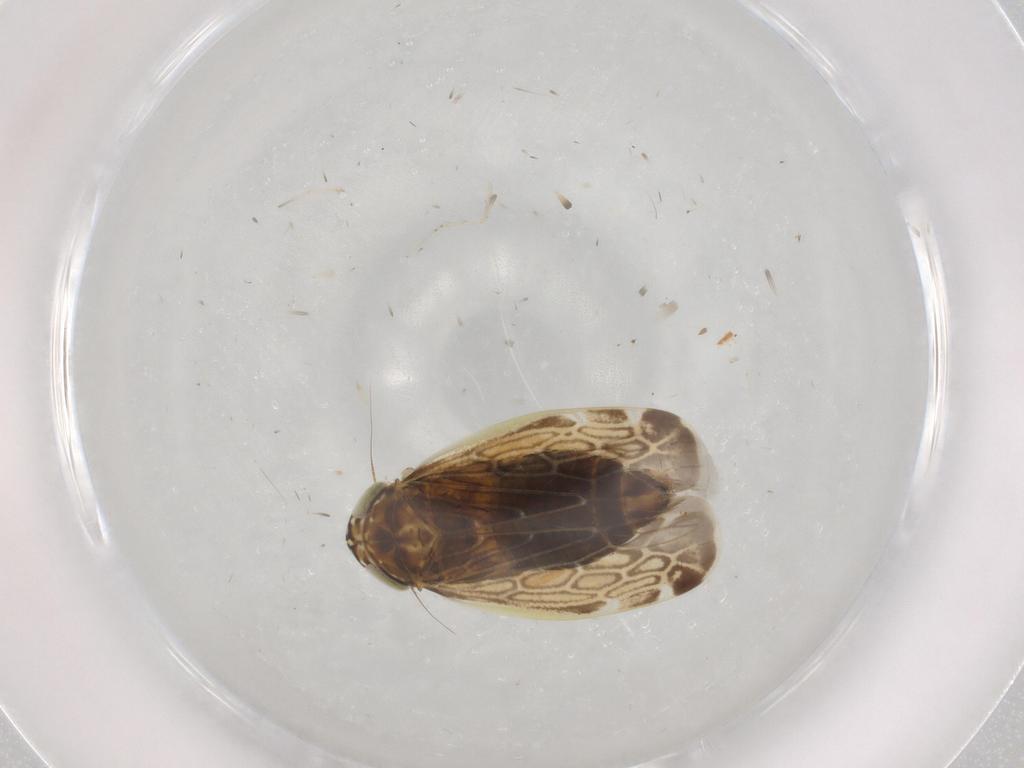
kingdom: Animalia
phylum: Arthropoda
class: Insecta
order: Hemiptera
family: Cicadellidae
